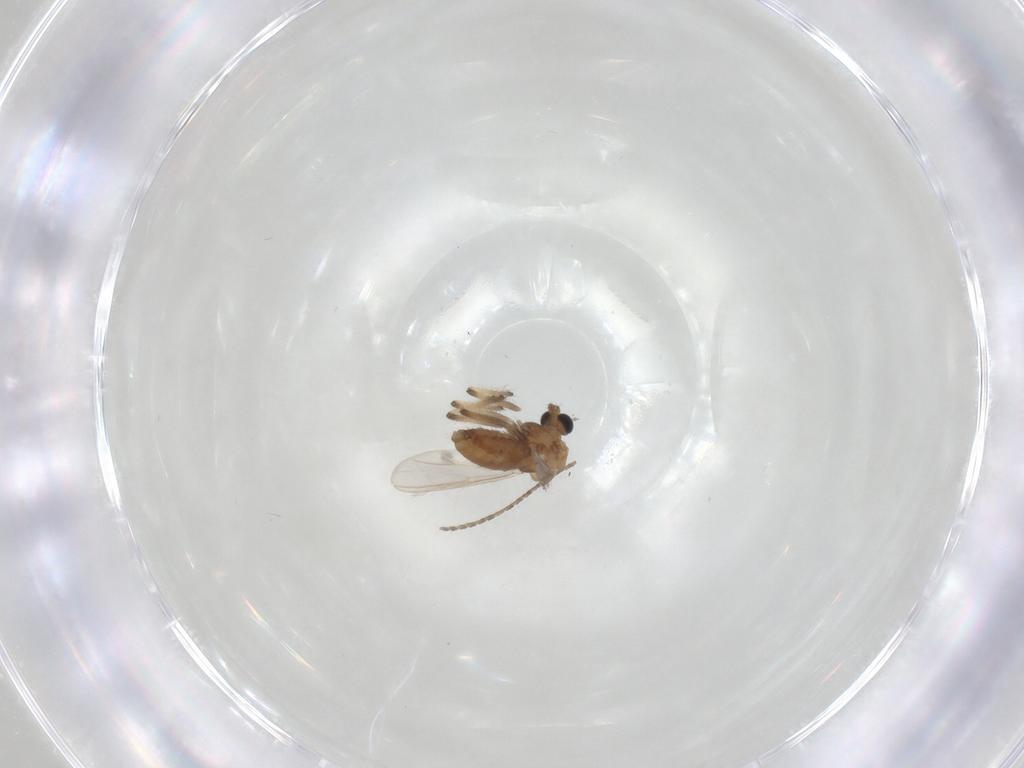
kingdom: Animalia
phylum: Arthropoda
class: Insecta
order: Diptera
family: Chironomidae
